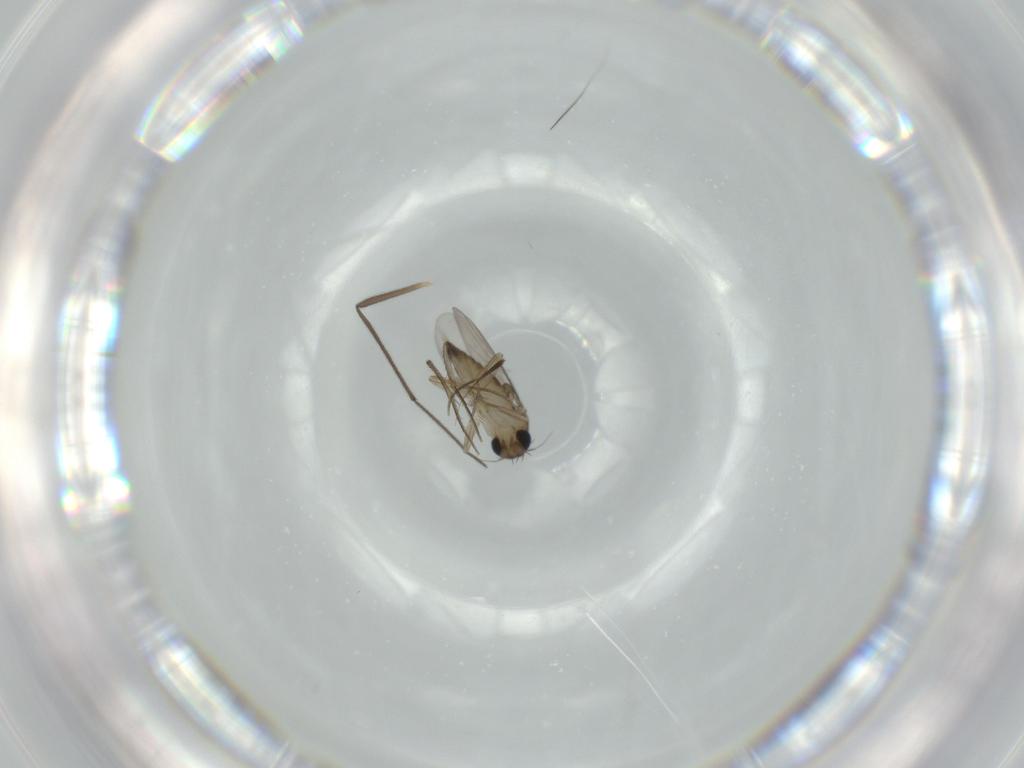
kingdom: Animalia
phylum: Arthropoda
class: Insecta
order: Diptera
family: Phoridae
